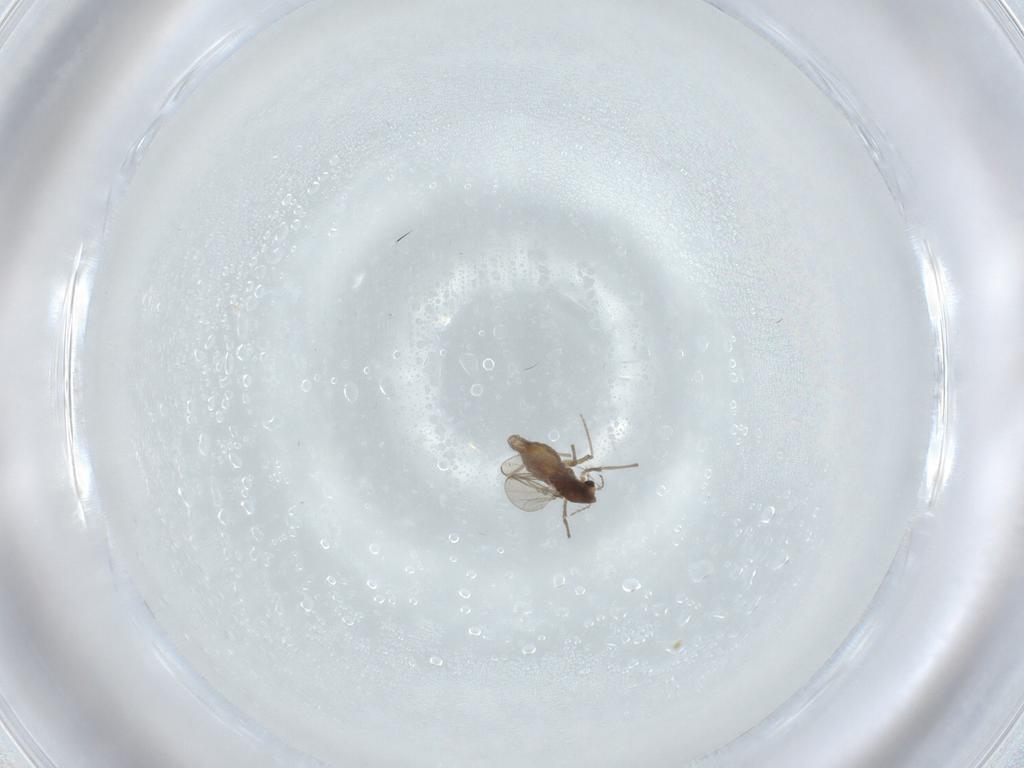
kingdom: Animalia
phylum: Arthropoda
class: Insecta
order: Diptera
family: Chironomidae
